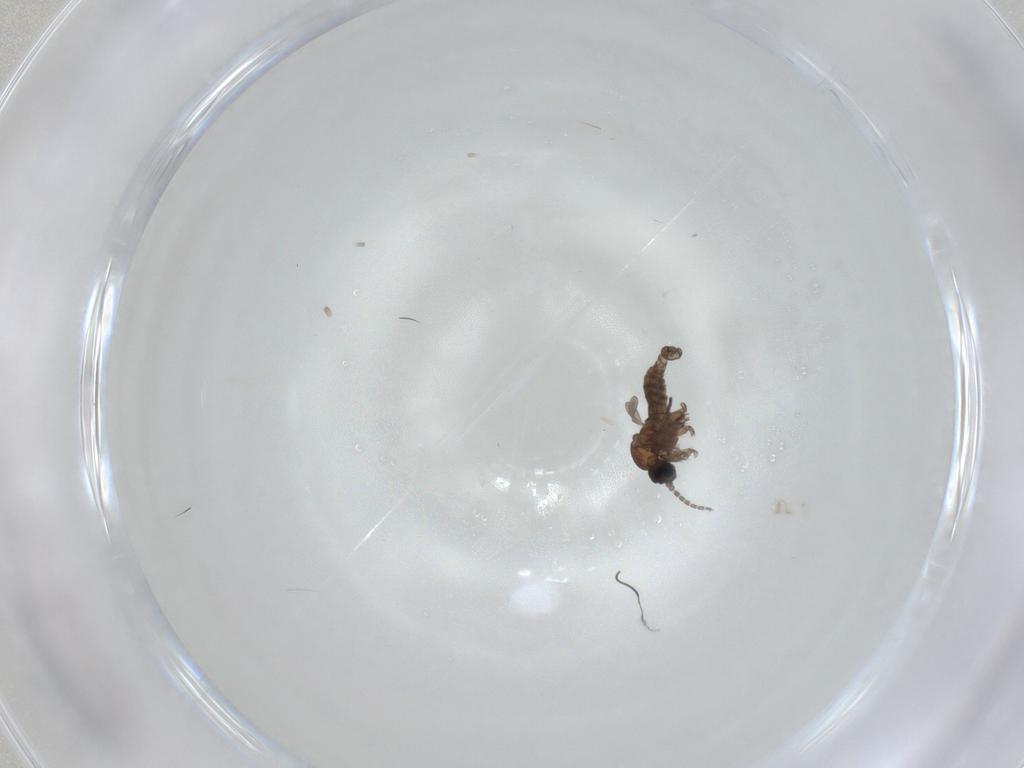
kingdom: Animalia
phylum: Arthropoda
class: Insecta
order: Diptera
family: Sciaridae
